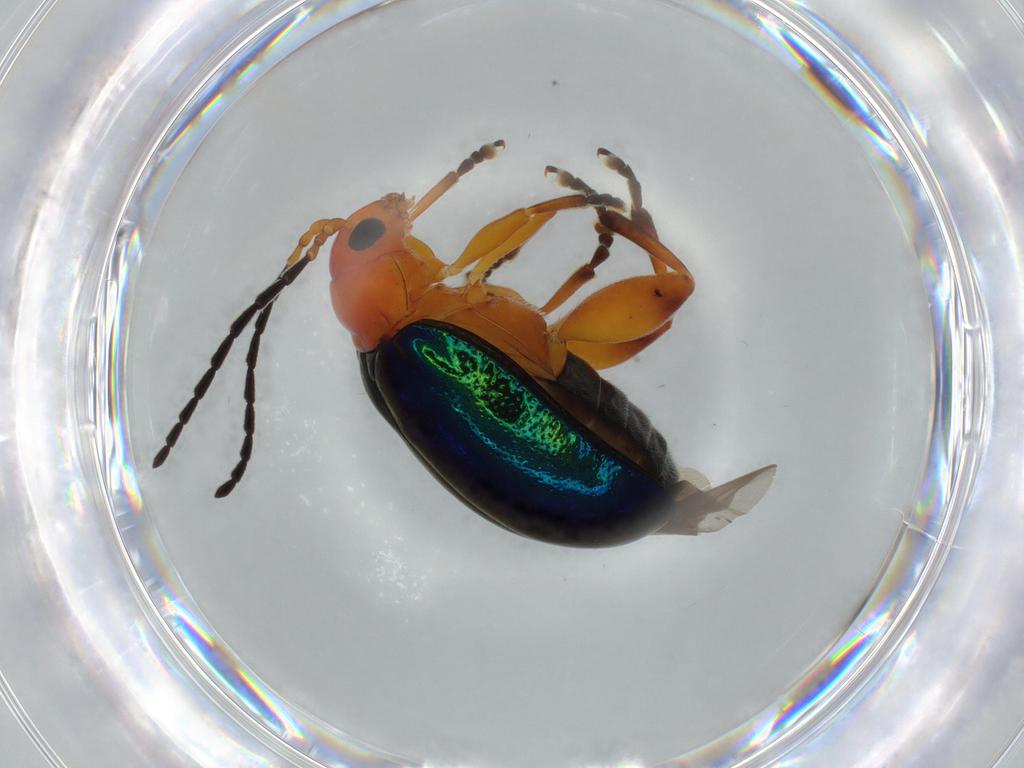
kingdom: Animalia
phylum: Arthropoda
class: Insecta
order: Coleoptera
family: Chrysomelidae
